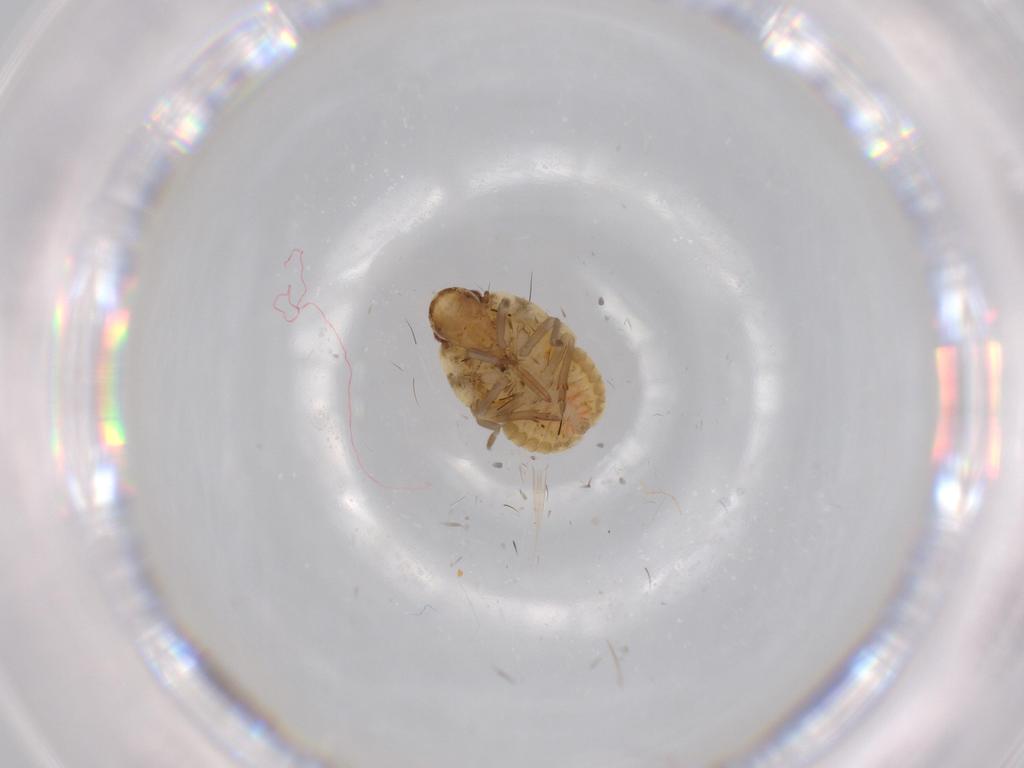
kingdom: Animalia
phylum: Arthropoda
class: Insecta
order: Hemiptera
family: Flatidae
